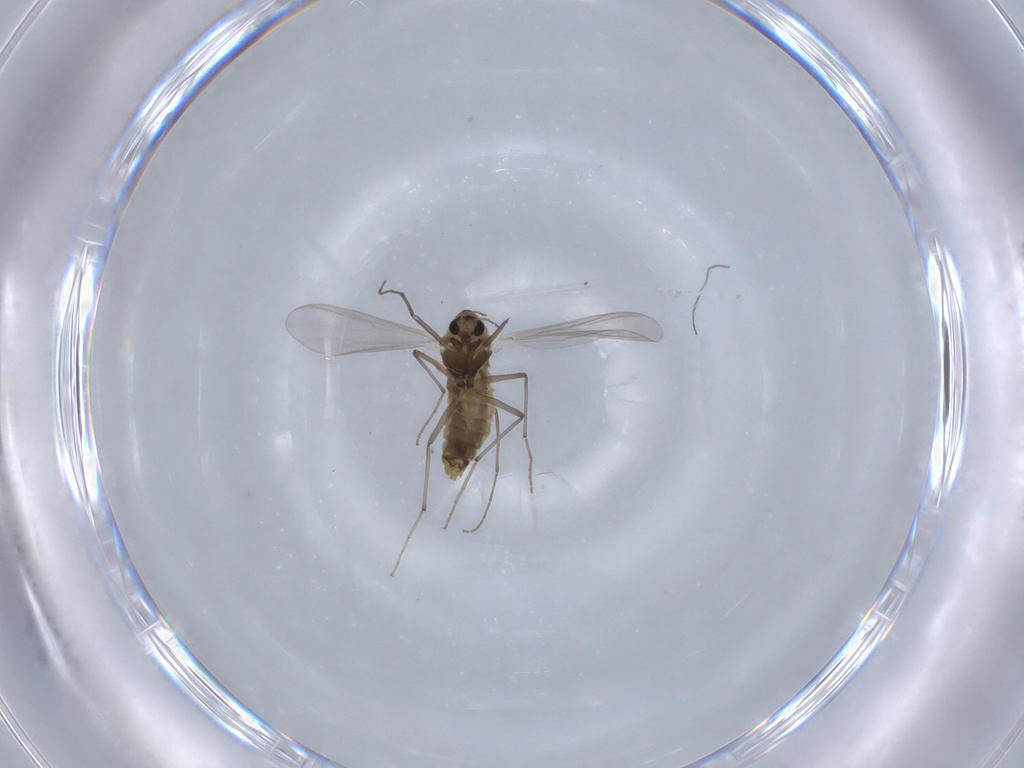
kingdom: Animalia
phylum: Arthropoda
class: Insecta
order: Diptera
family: Chironomidae
